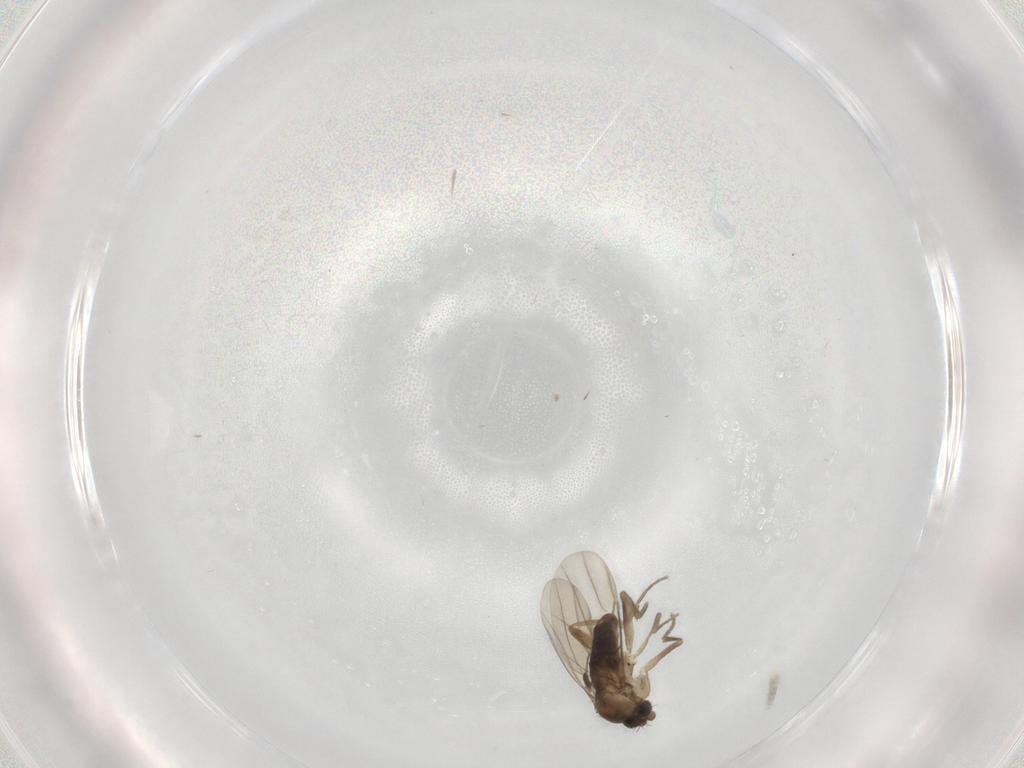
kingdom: Animalia
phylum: Arthropoda
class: Insecta
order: Diptera
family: Phoridae
